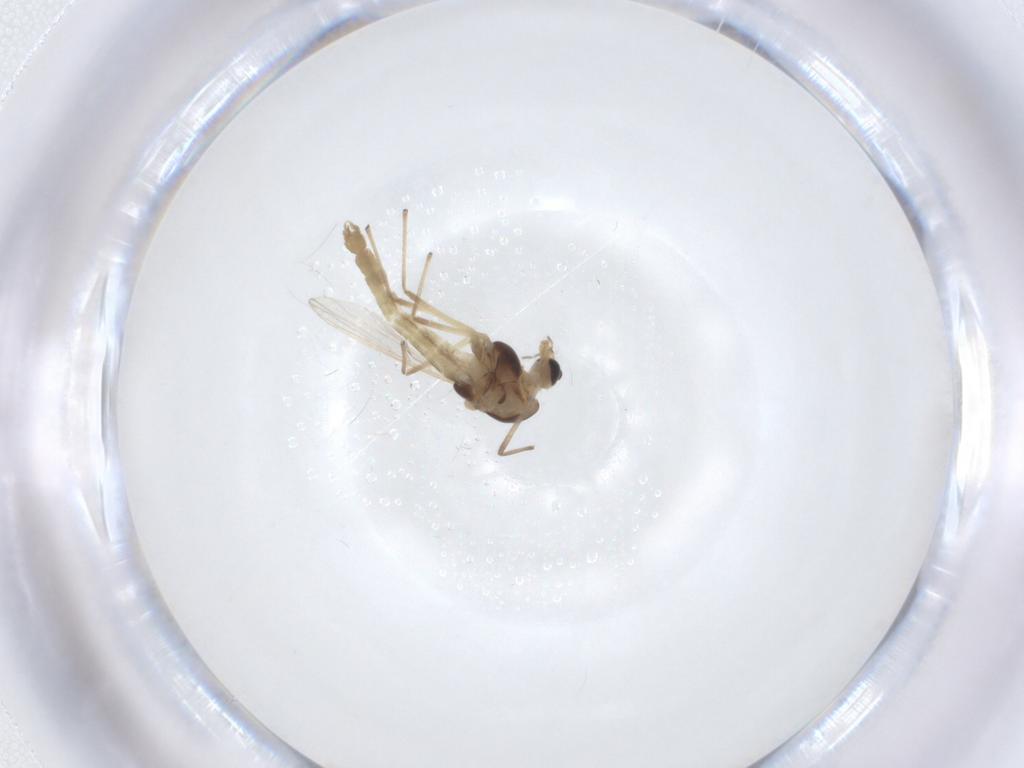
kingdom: Animalia
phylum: Arthropoda
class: Insecta
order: Diptera
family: Chironomidae
